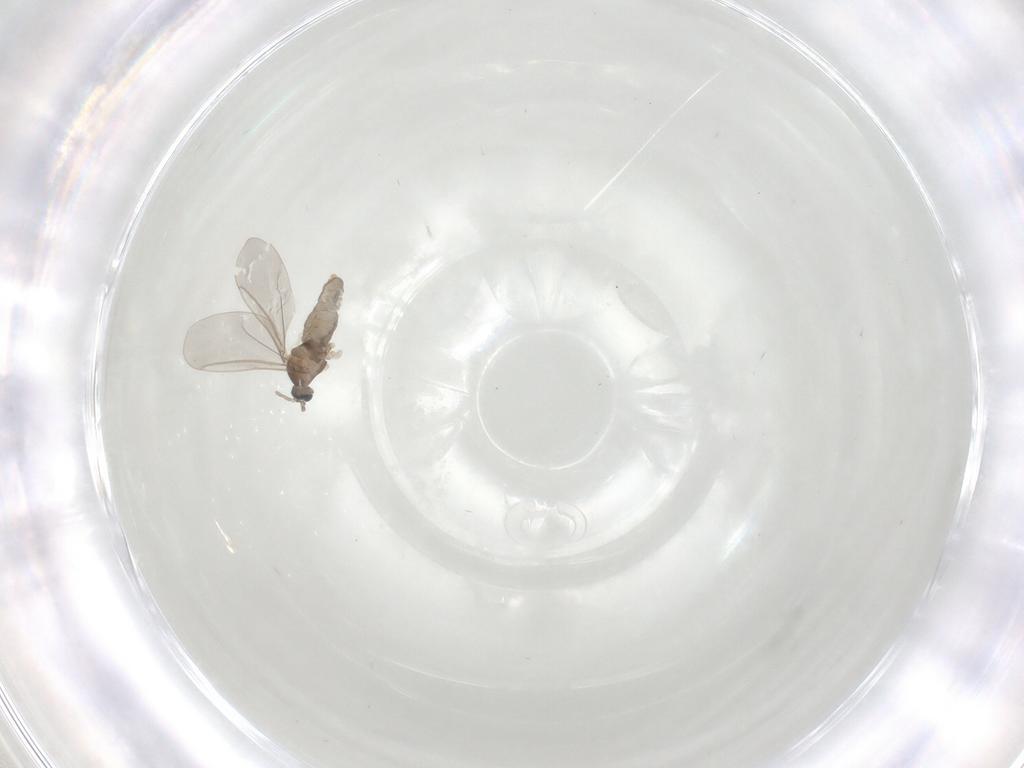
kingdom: Animalia
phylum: Arthropoda
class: Insecta
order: Diptera
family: Cecidomyiidae
